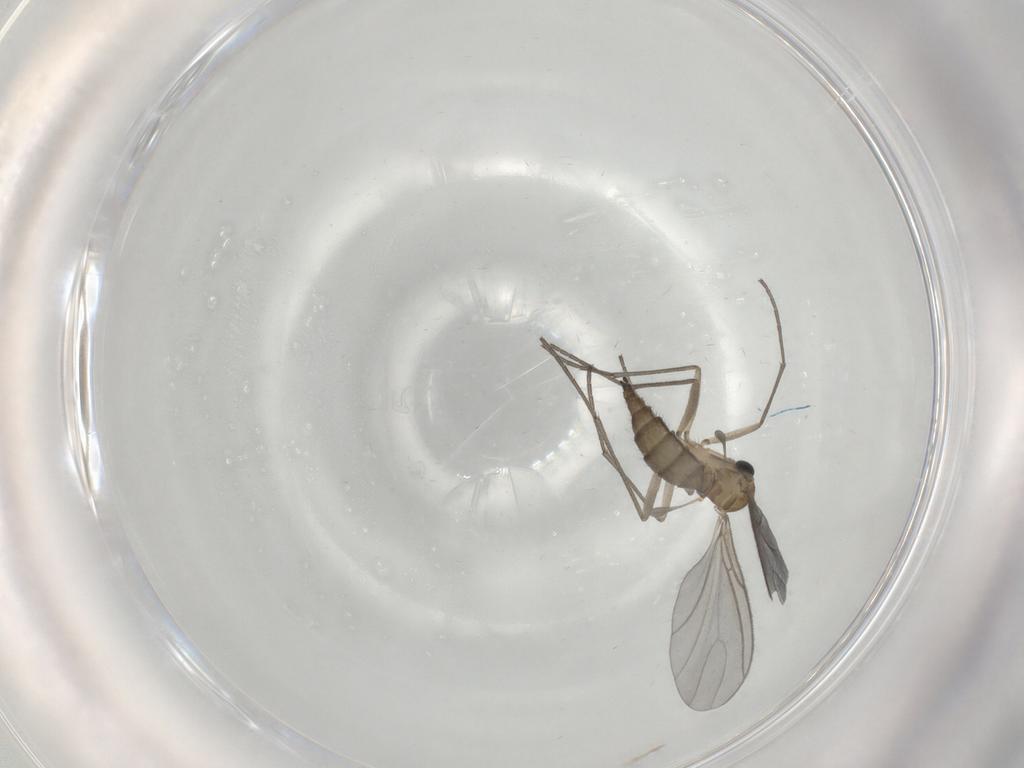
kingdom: Animalia
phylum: Arthropoda
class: Insecta
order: Diptera
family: Sciaridae
